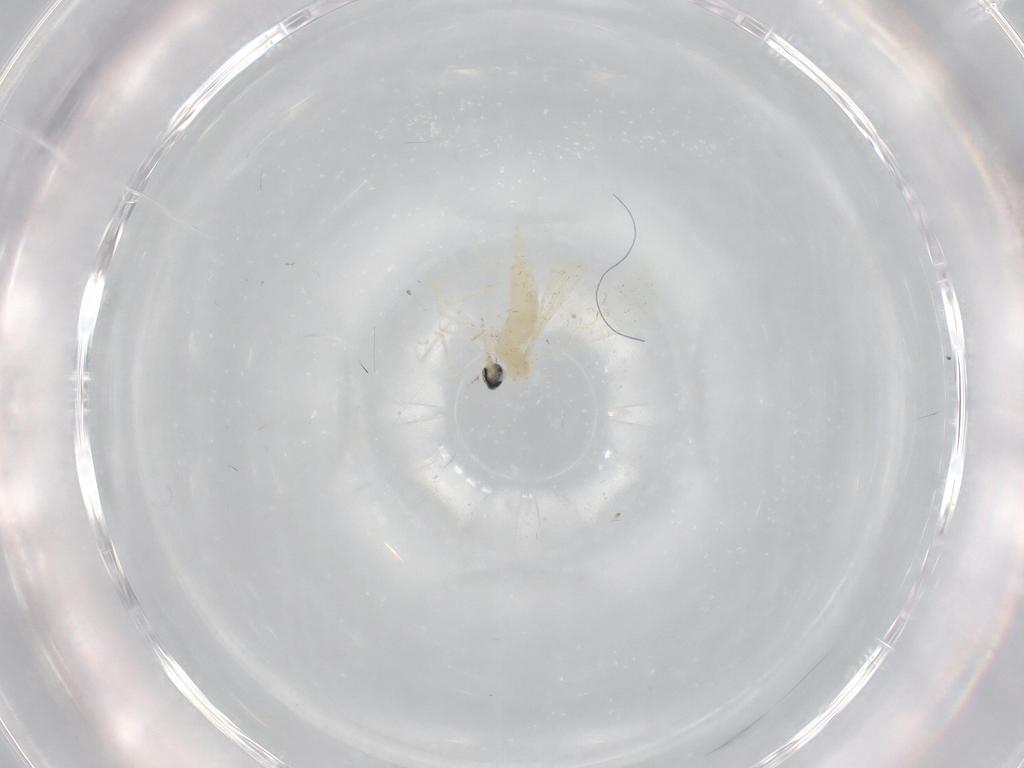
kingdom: Animalia
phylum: Arthropoda
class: Insecta
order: Diptera
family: Cecidomyiidae
